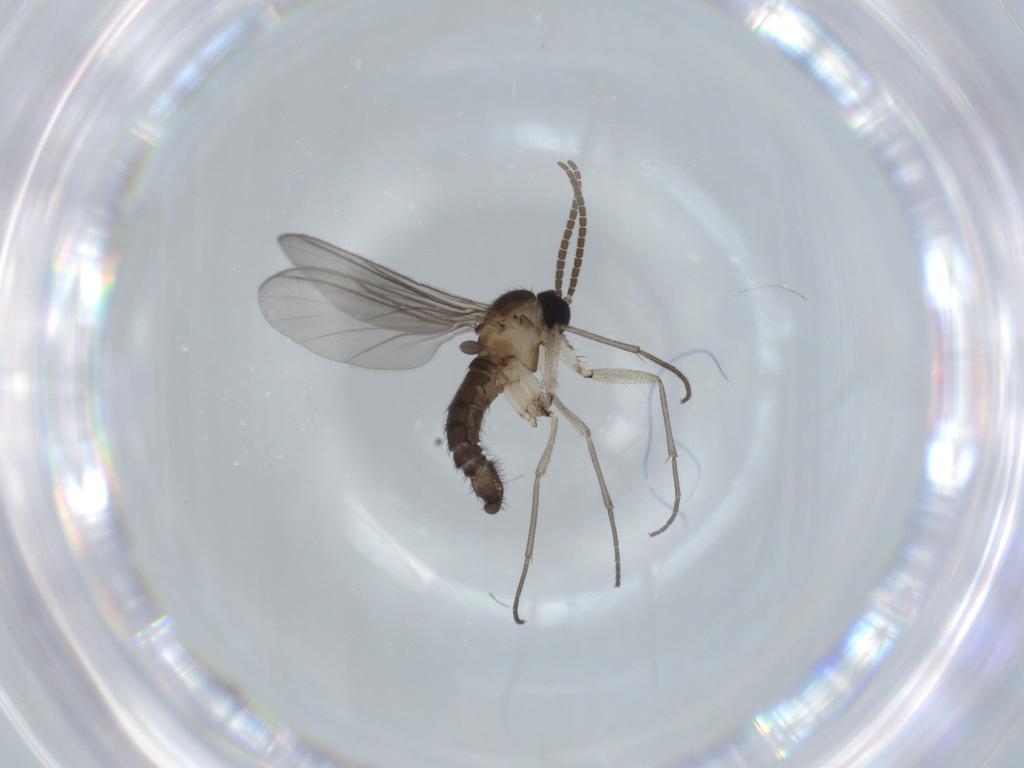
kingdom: Animalia
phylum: Arthropoda
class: Insecta
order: Diptera
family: Sciaridae
